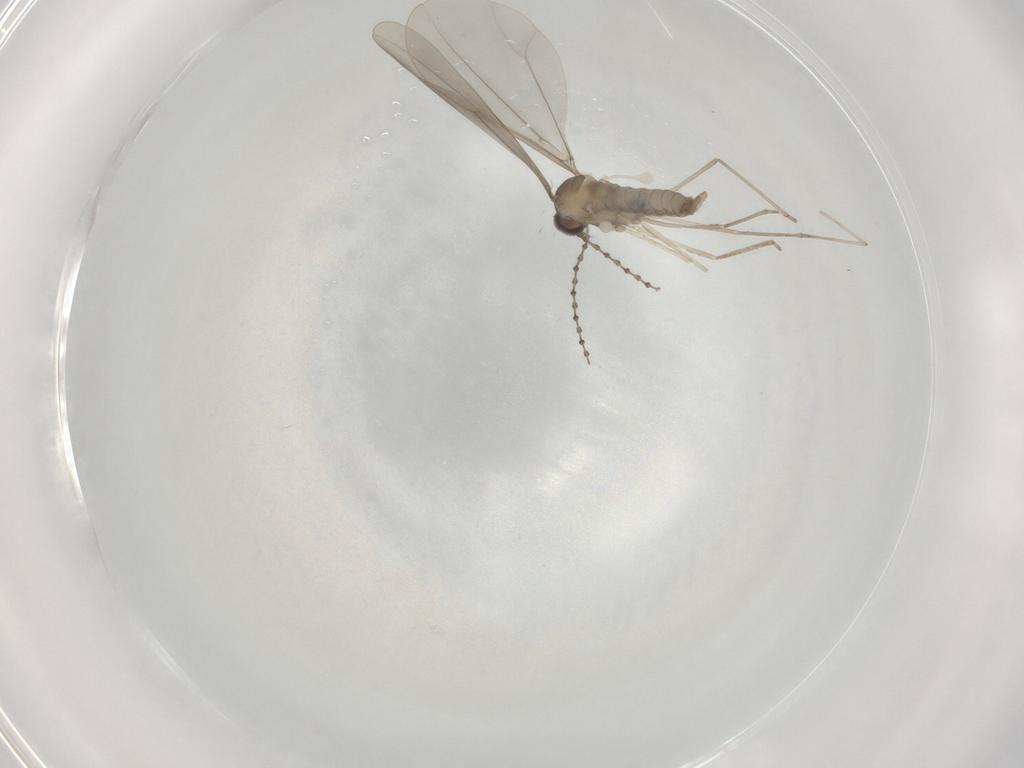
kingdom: Animalia
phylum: Arthropoda
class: Insecta
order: Diptera
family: Cecidomyiidae
